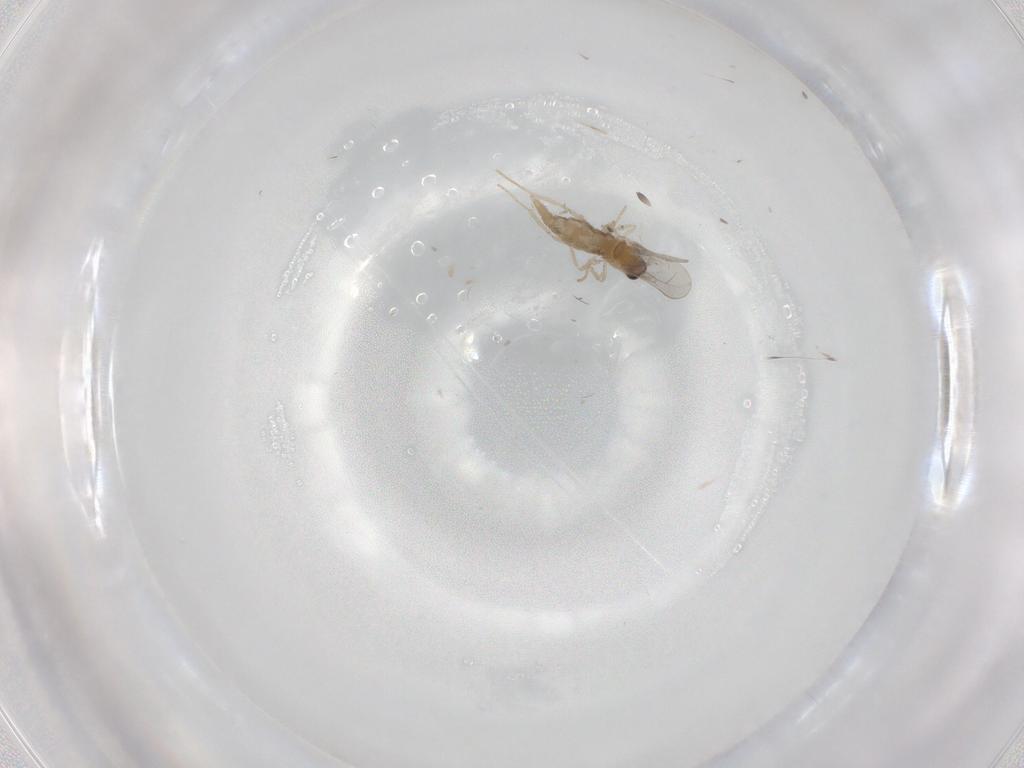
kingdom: Animalia
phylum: Arthropoda
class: Insecta
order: Diptera
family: Cecidomyiidae
